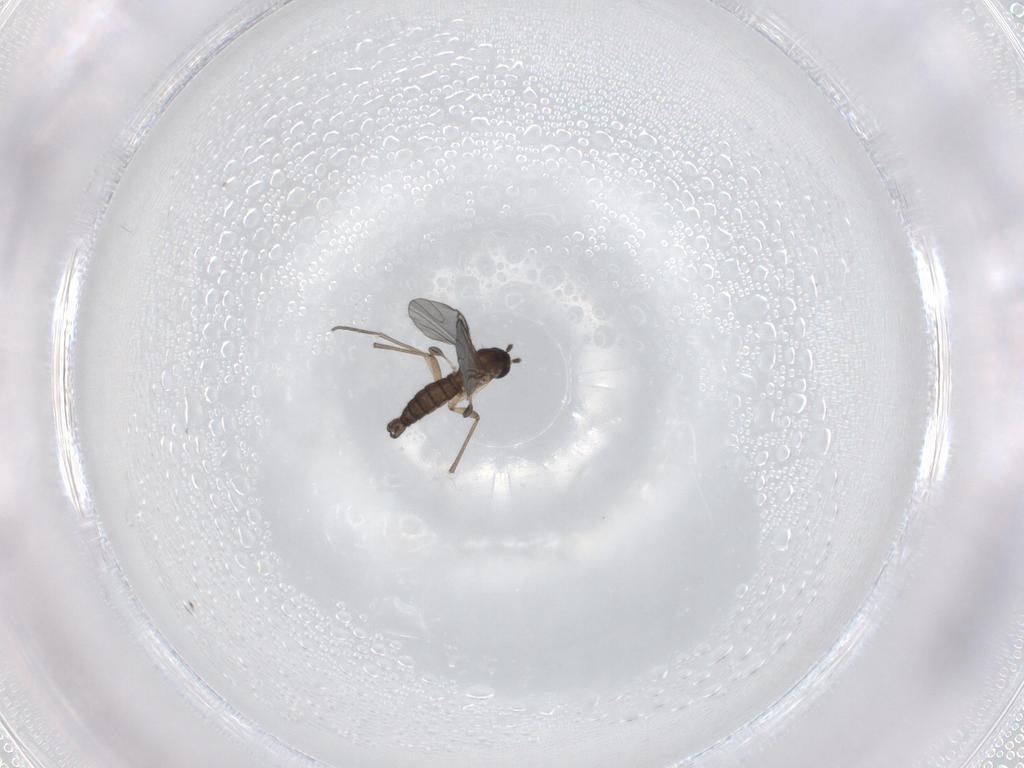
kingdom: Animalia
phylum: Arthropoda
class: Insecta
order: Diptera
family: Sciaridae
